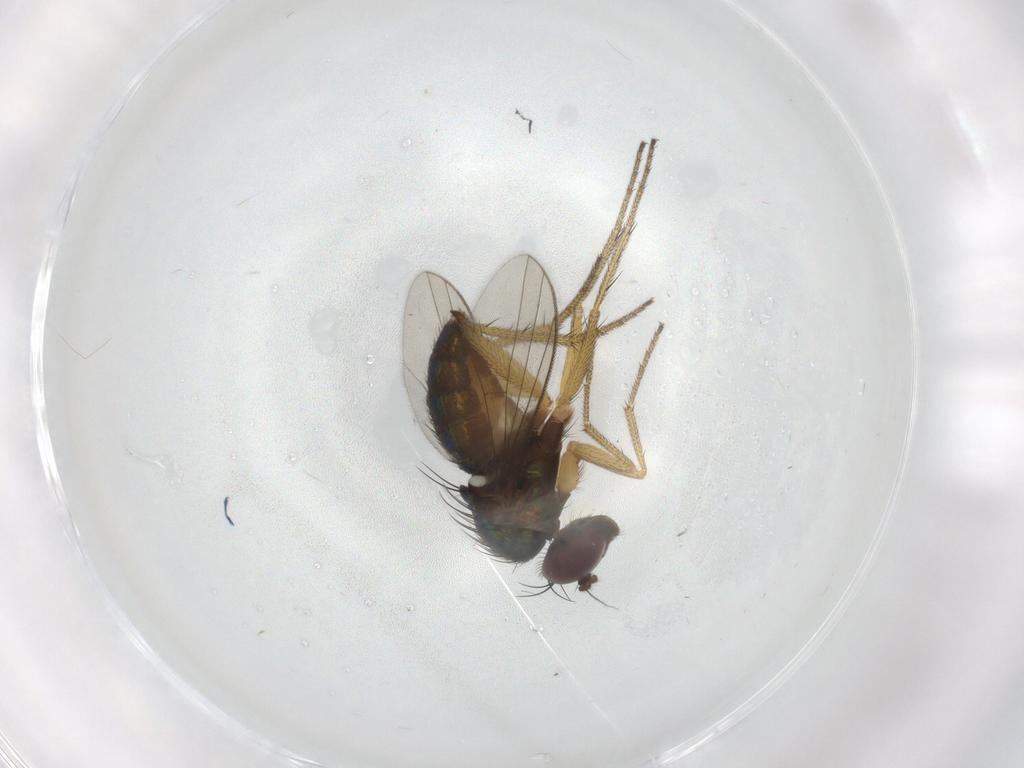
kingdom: Animalia
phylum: Arthropoda
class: Insecta
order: Diptera
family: Chironomidae
